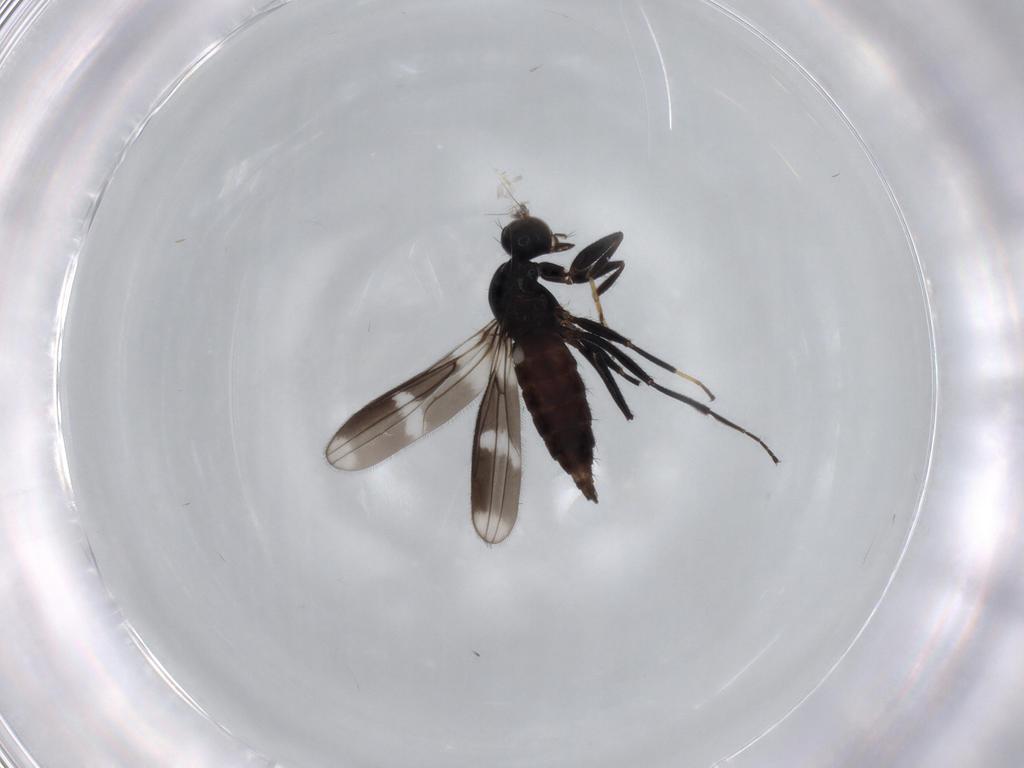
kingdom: Animalia
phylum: Arthropoda
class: Insecta
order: Diptera
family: Hybotidae
